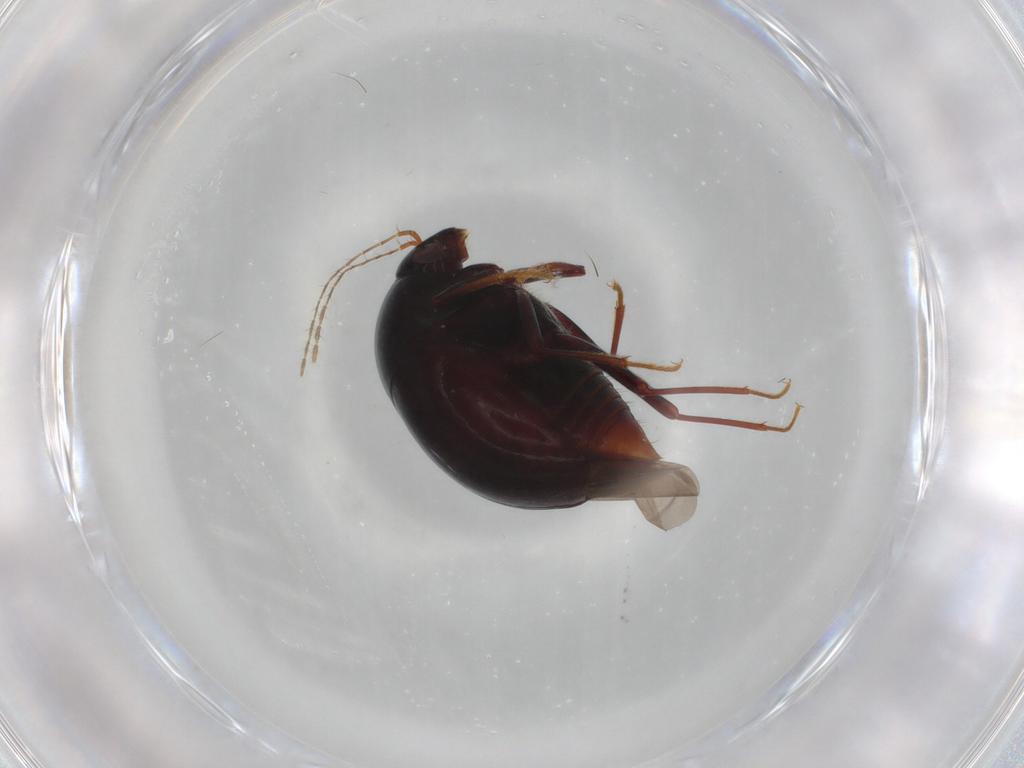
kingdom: Animalia
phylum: Arthropoda
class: Insecta
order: Coleoptera
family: Staphylinidae
